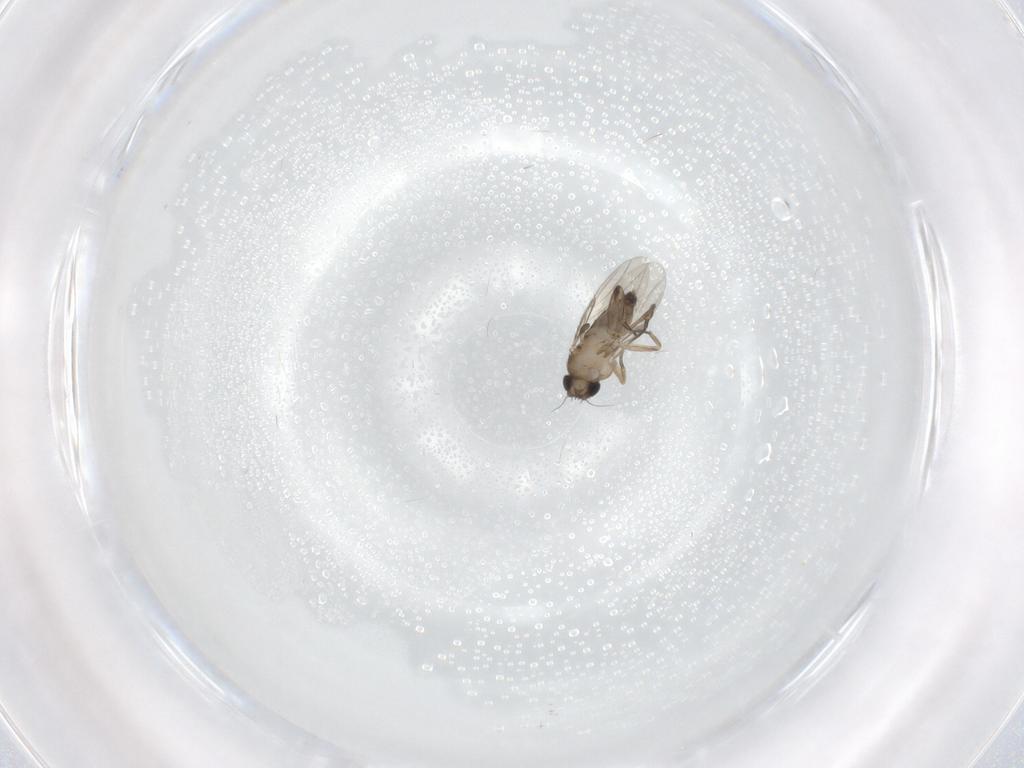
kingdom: Animalia
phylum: Arthropoda
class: Insecta
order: Diptera
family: Phoridae
